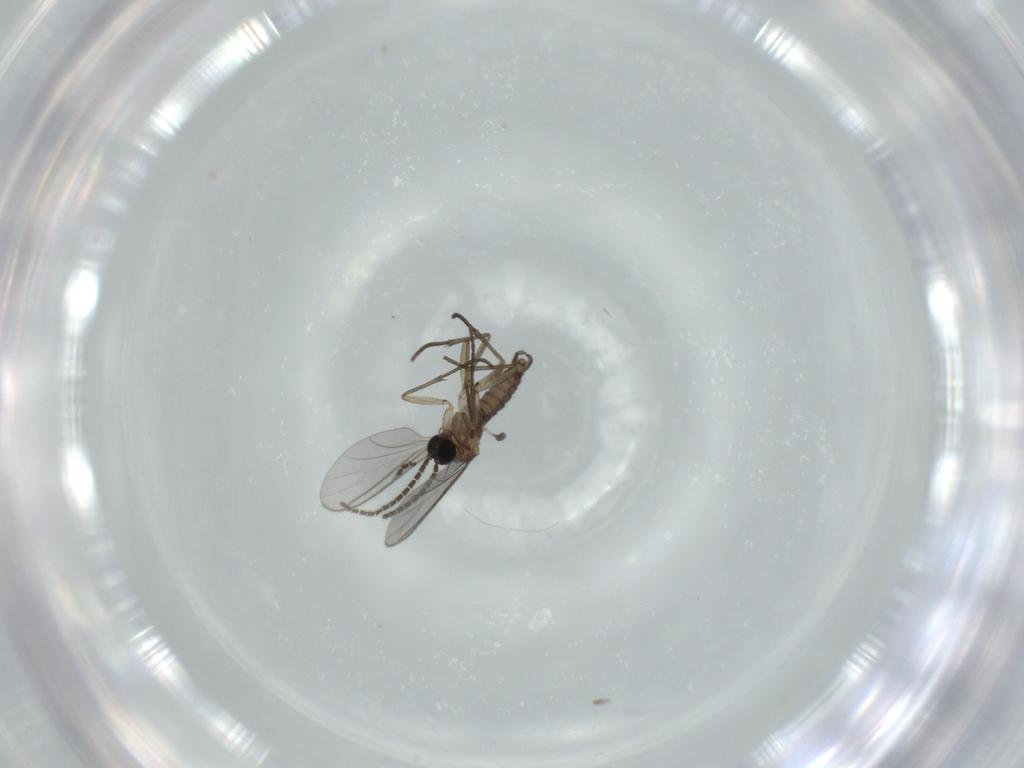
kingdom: Animalia
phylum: Arthropoda
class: Insecta
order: Diptera
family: Sciaridae
